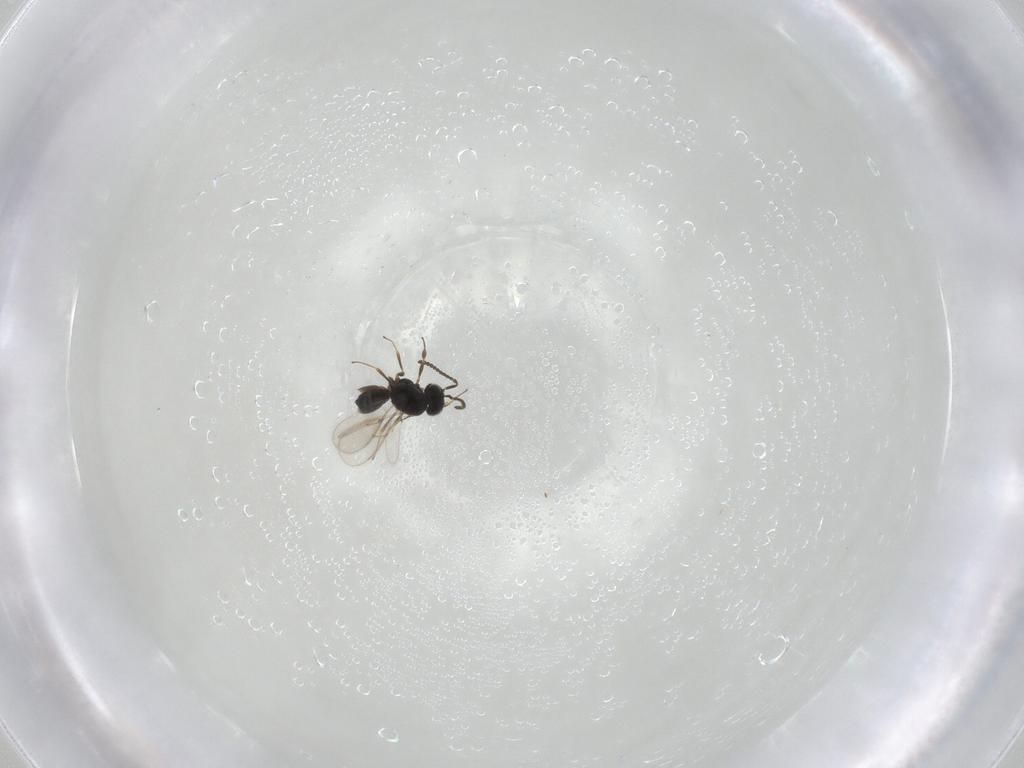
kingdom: Animalia
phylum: Arthropoda
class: Insecta
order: Hymenoptera
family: Scelionidae
